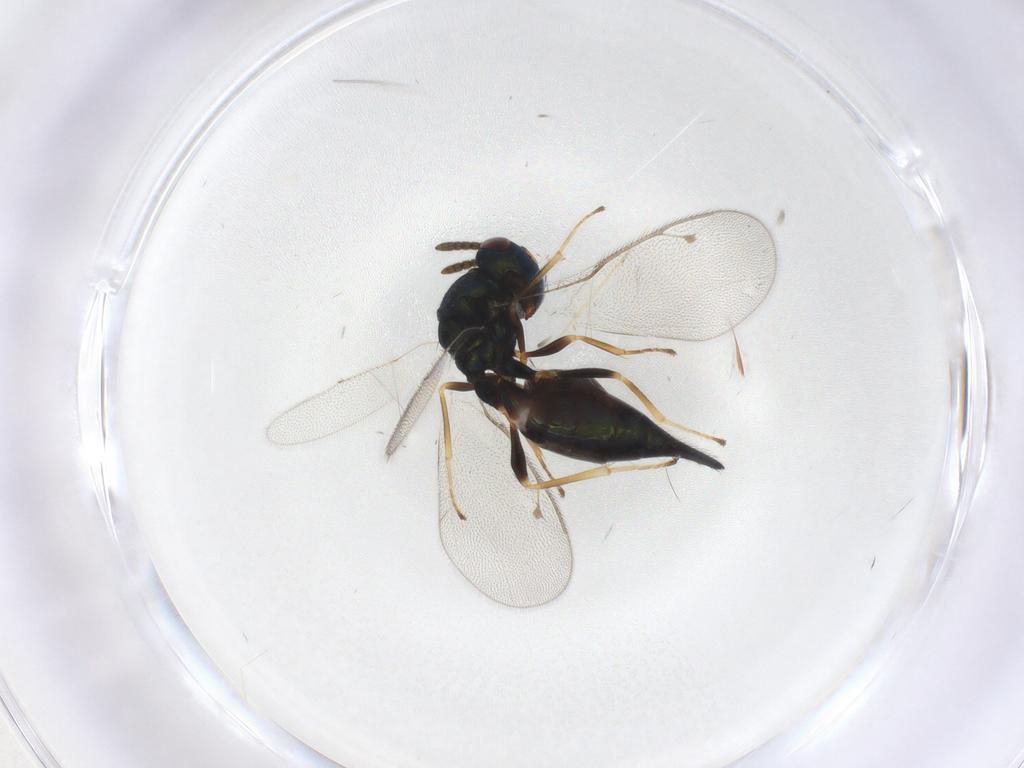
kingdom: Animalia
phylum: Arthropoda
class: Insecta
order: Hymenoptera
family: Pteromalidae
